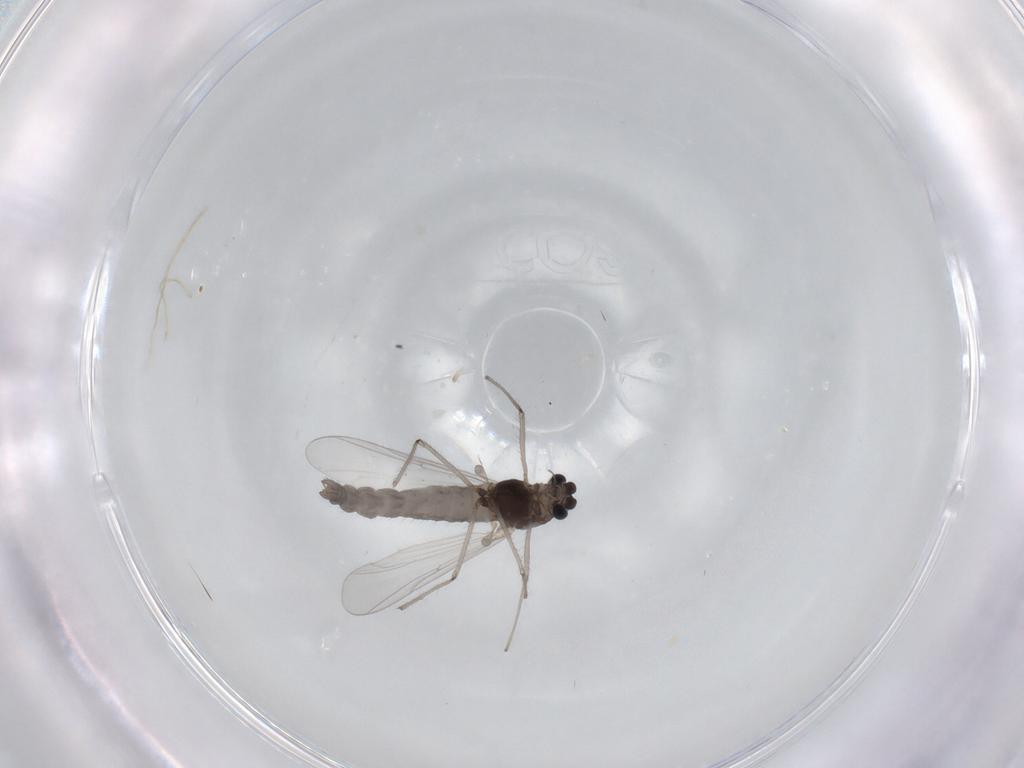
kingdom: Animalia
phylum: Arthropoda
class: Insecta
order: Diptera
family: Chironomidae
